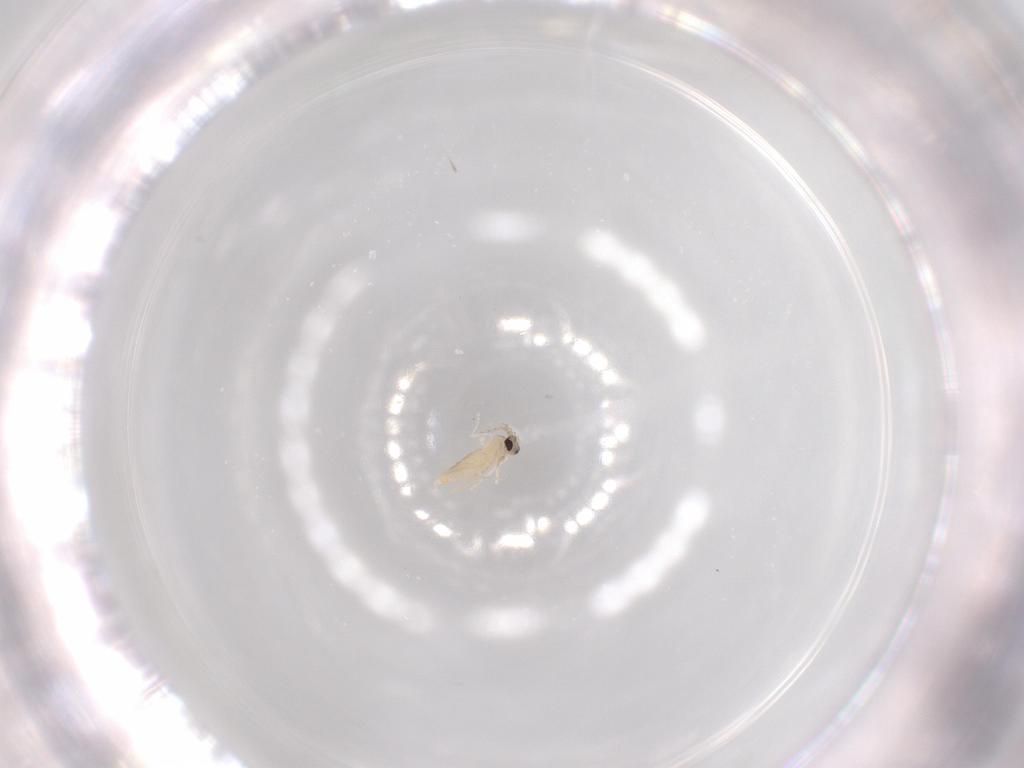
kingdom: Animalia
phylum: Arthropoda
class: Insecta
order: Diptera
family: Cecidomyiidae
